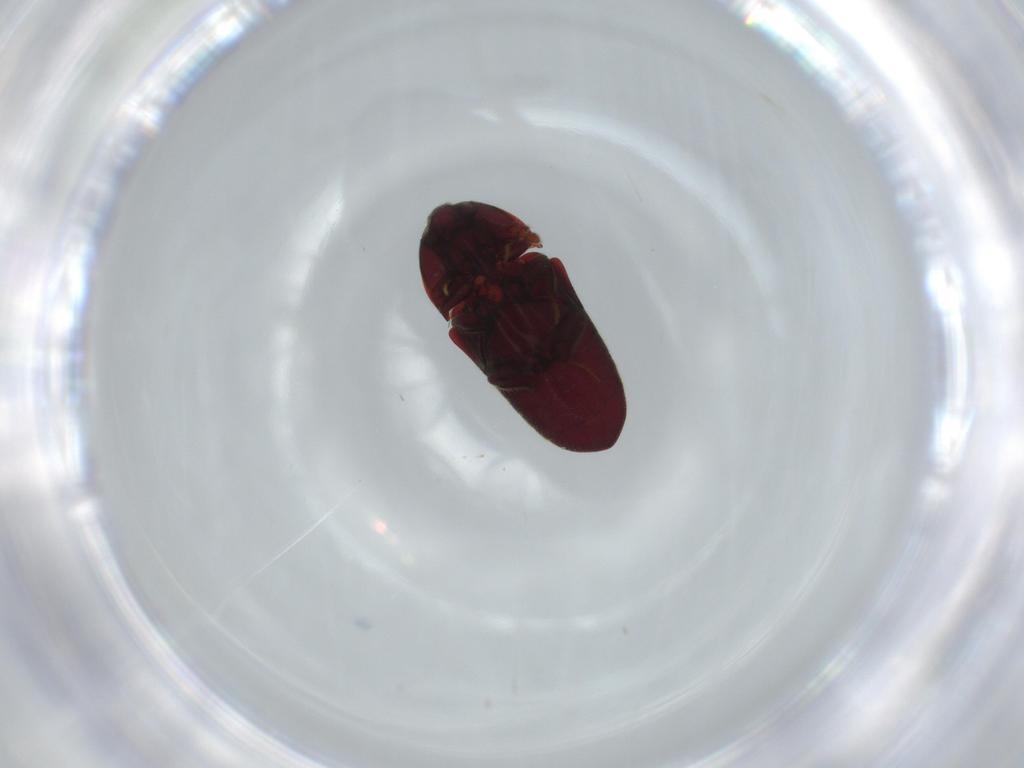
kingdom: Animalia
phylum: Arthropoda
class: Insecta
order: Coleoptera
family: Throscidae
